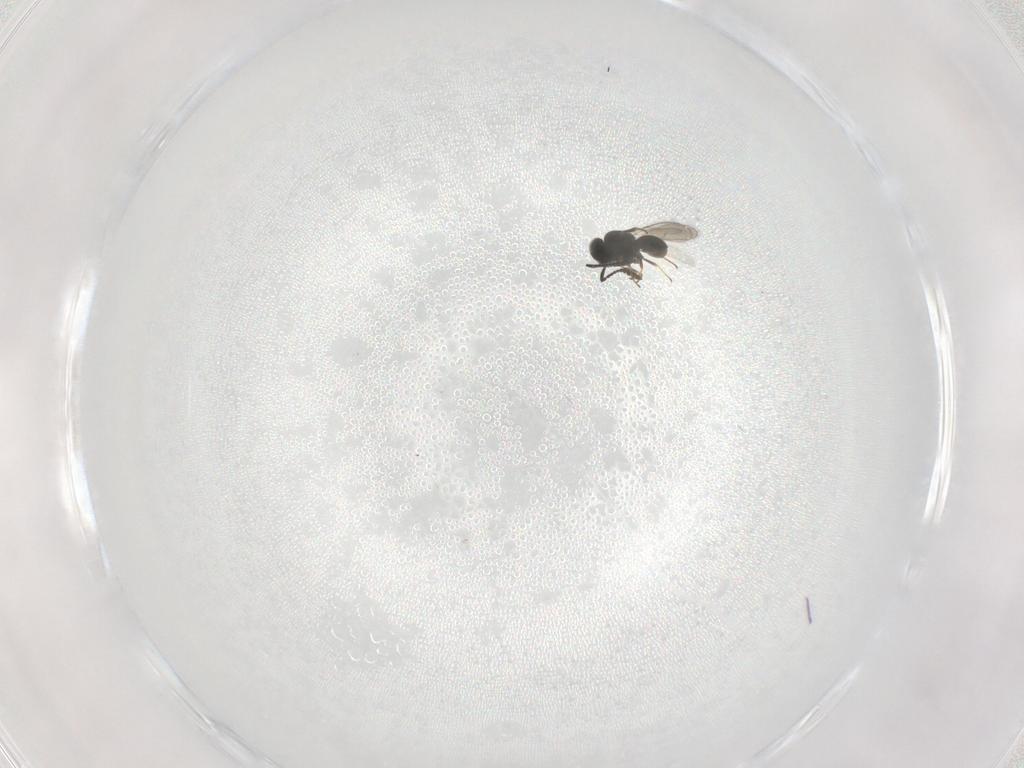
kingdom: Animalia
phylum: Arthropoda
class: Insecta
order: Hymenoptera
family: Scelionidae
